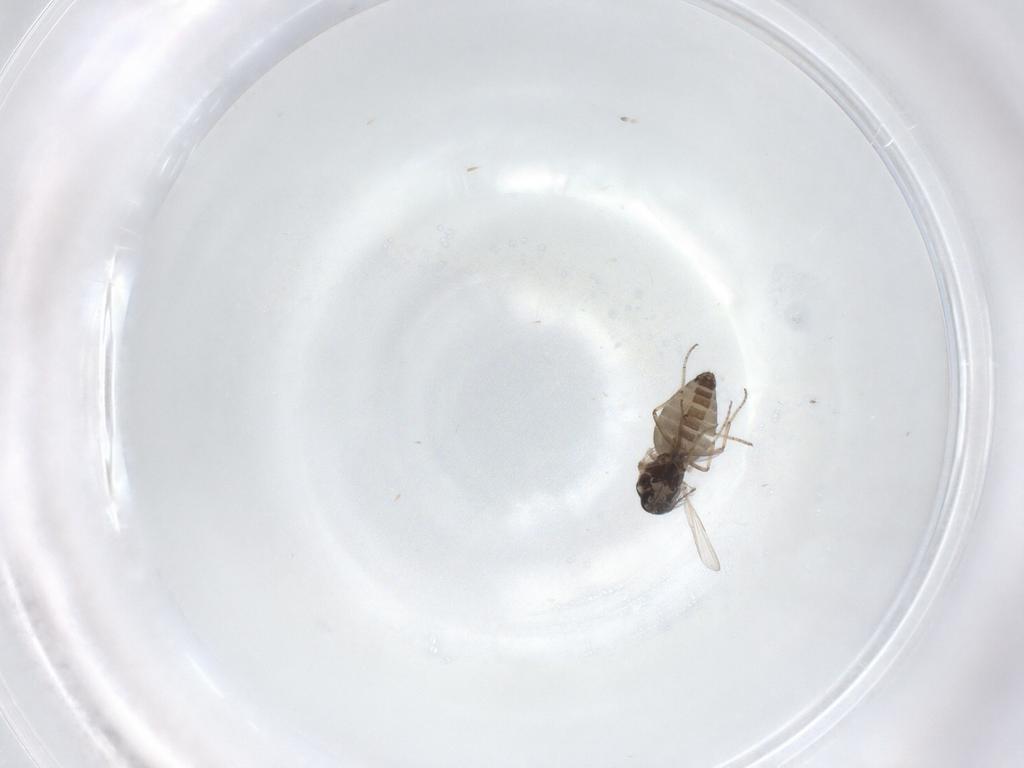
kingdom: Animalia
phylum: Arthropoda
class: Insecta
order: Diptera
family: Ceratopogonidae
